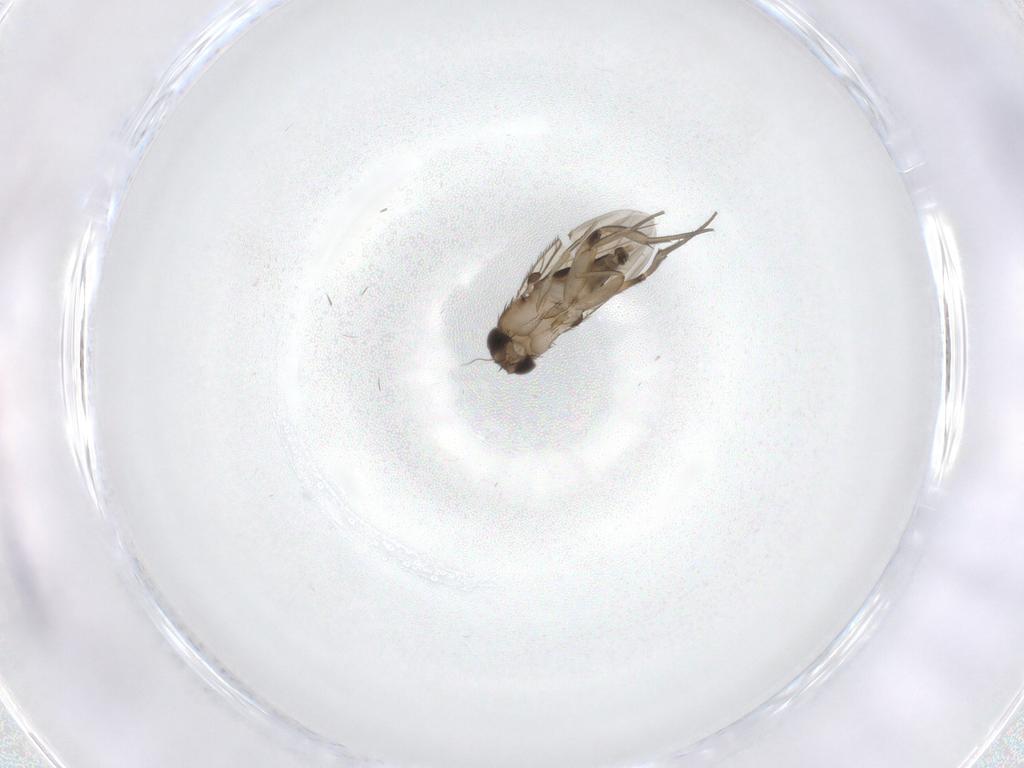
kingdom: Animalia
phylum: Arthropoda
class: Insecta
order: Diptera
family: Phoridae
